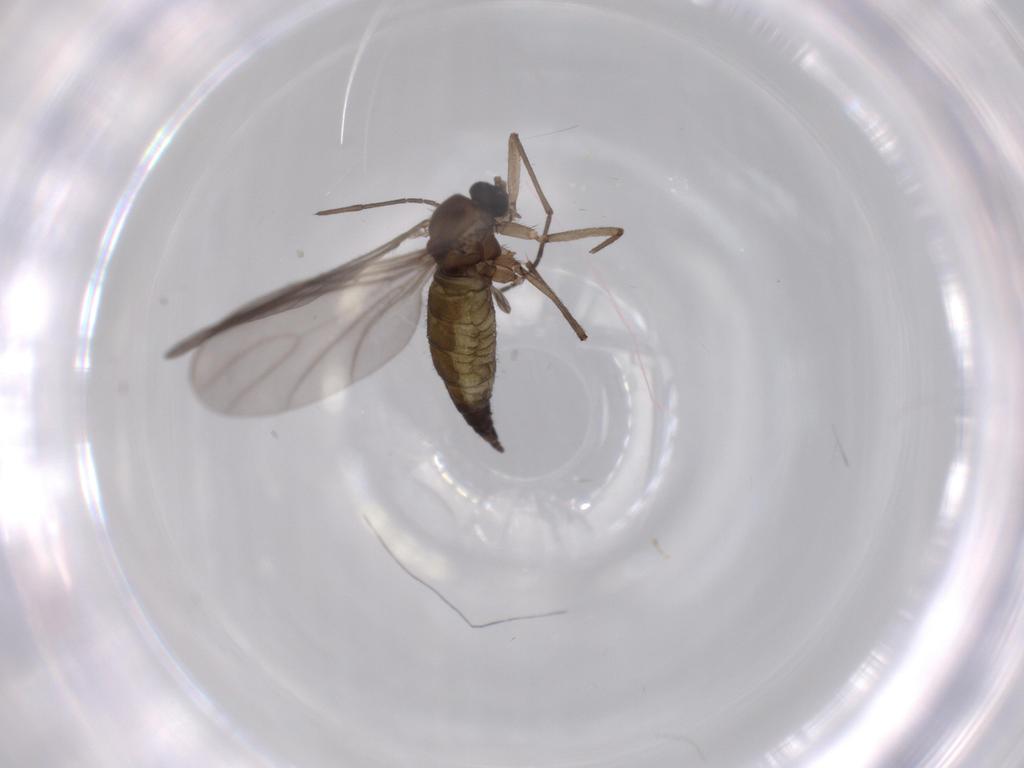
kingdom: Animalia
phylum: Arthropoda
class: Insecta
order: Diptera
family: Sciaridae
